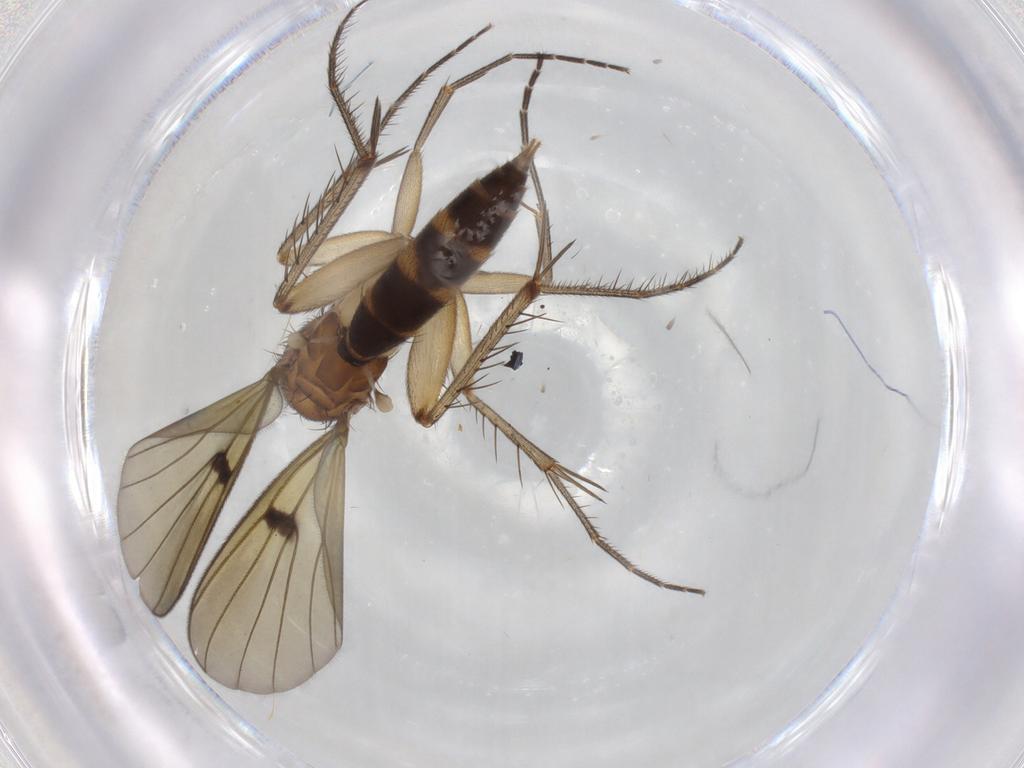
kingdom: Animalia
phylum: Arthropoda
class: Insecta
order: Diptera
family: Mycetophilidae
